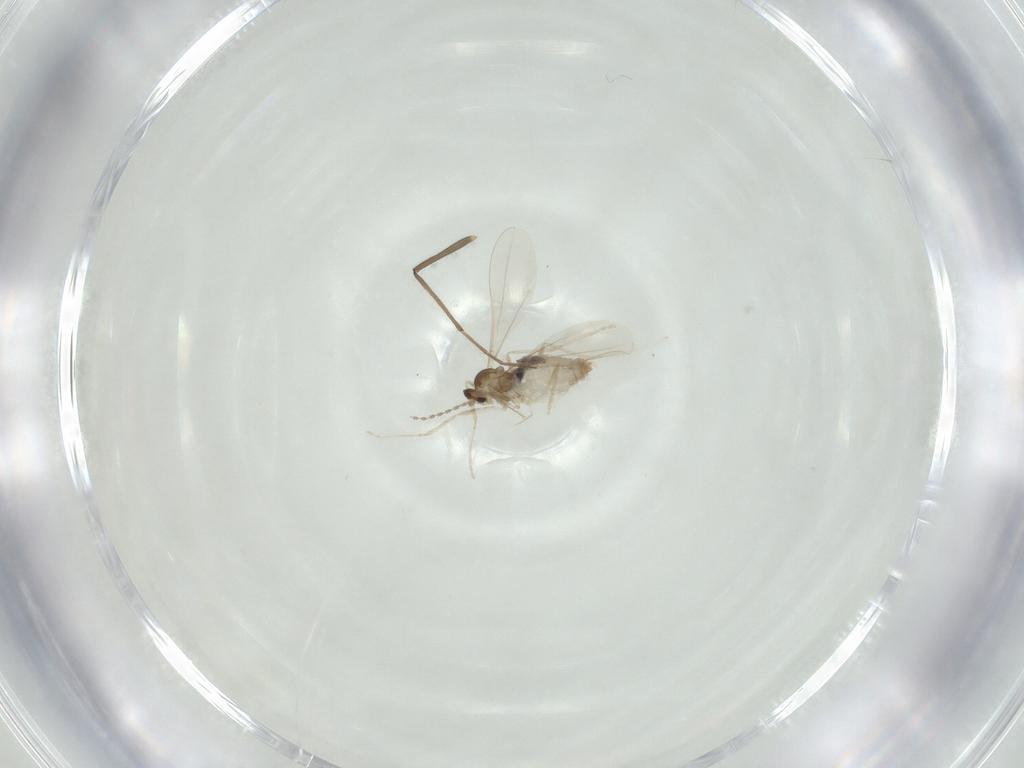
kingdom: Animalia
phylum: Arthropoda
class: Insecta
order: Diptera
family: Cecidomyiidae
